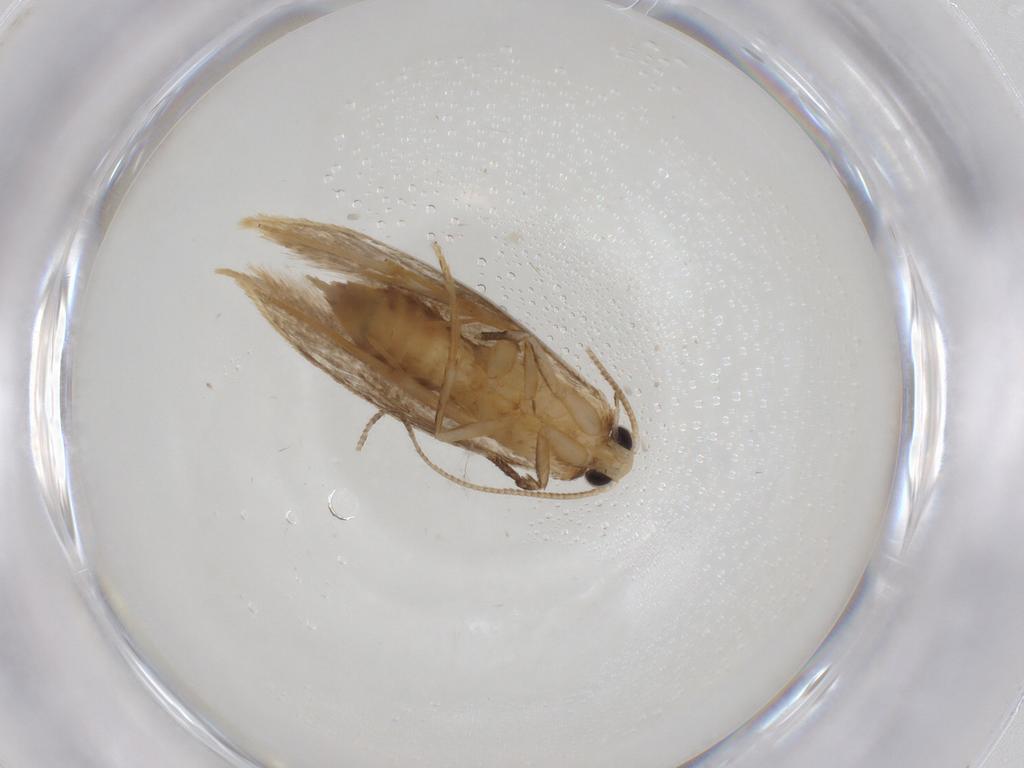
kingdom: Animalia
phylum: Arthropoda
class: Insecta
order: Lepidoptera
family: Tineidae
